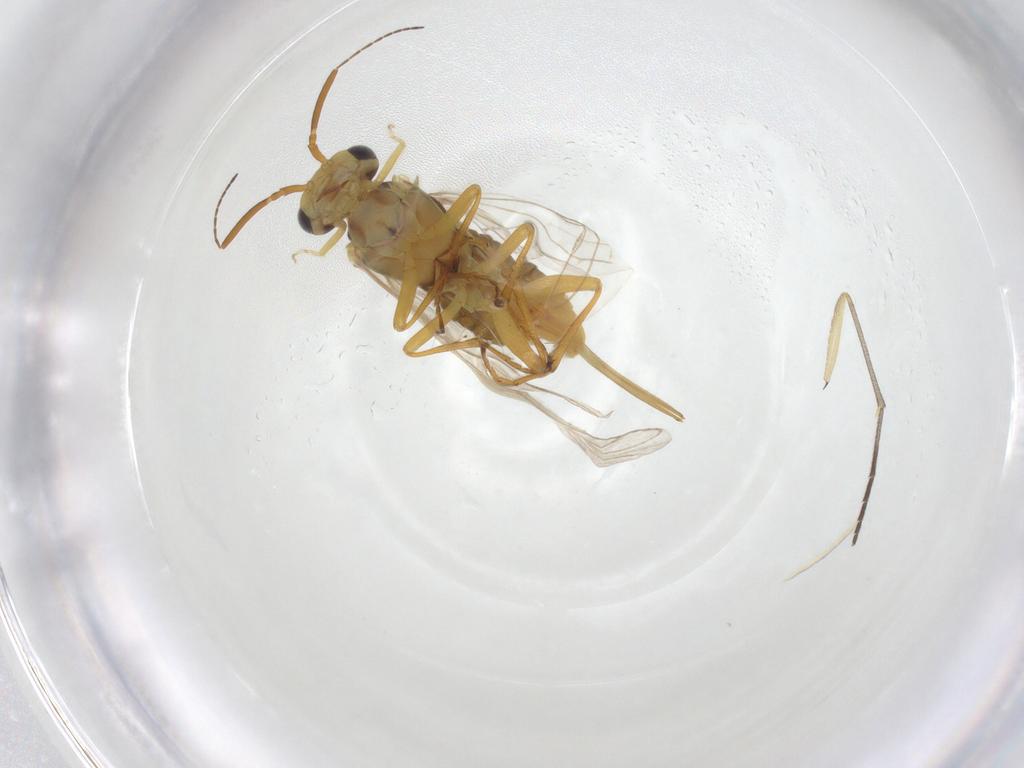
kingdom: Animalia
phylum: Arthropoda
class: Insecta
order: Hymenoptera
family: Xyelidae
